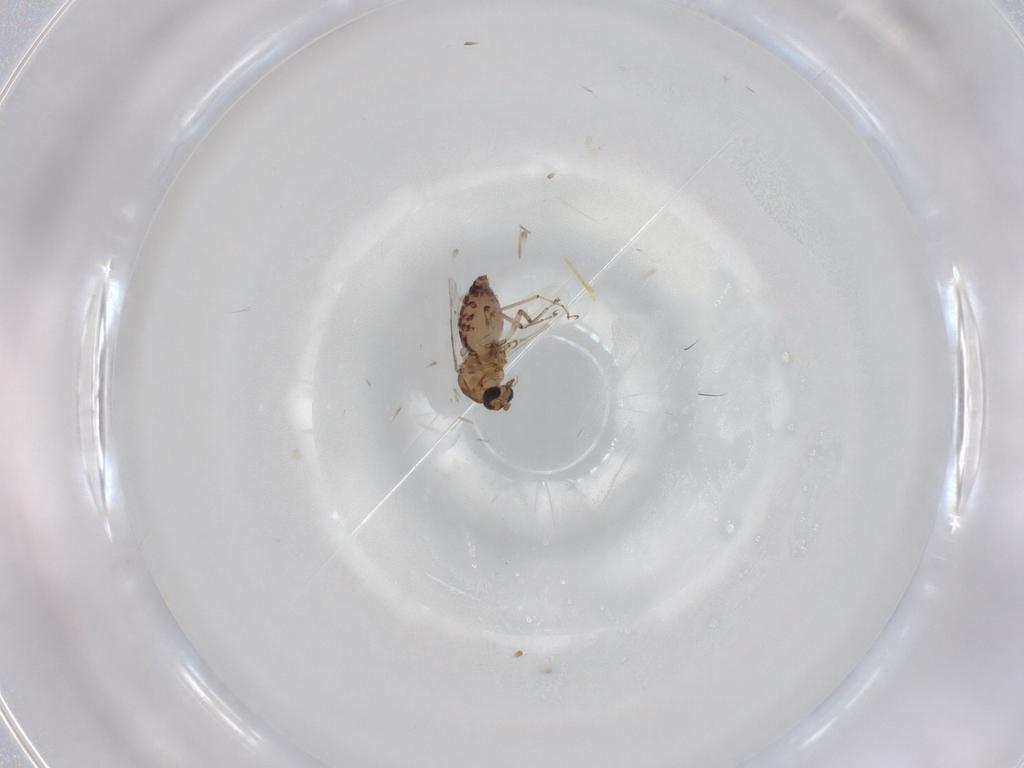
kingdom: Animalia
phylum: Arthropoda
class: Insecta
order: Diptera
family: Ceratopogonidae
